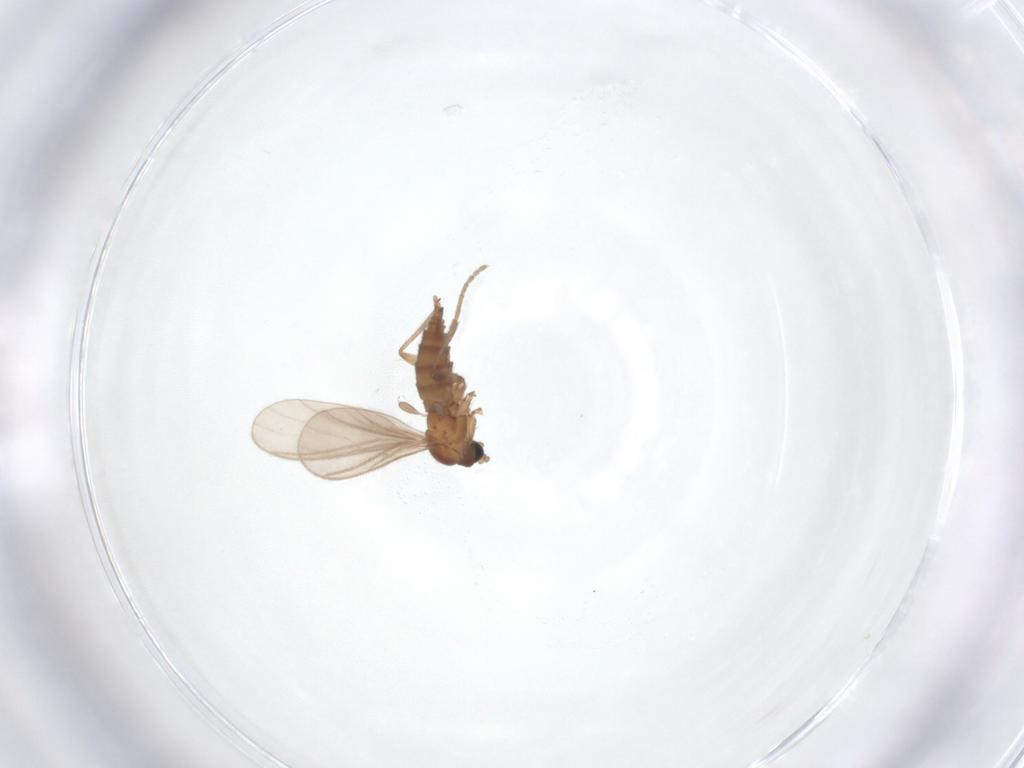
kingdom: Animalia
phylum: Arthropoda
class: Insecta
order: Diptera
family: Sciaridae
